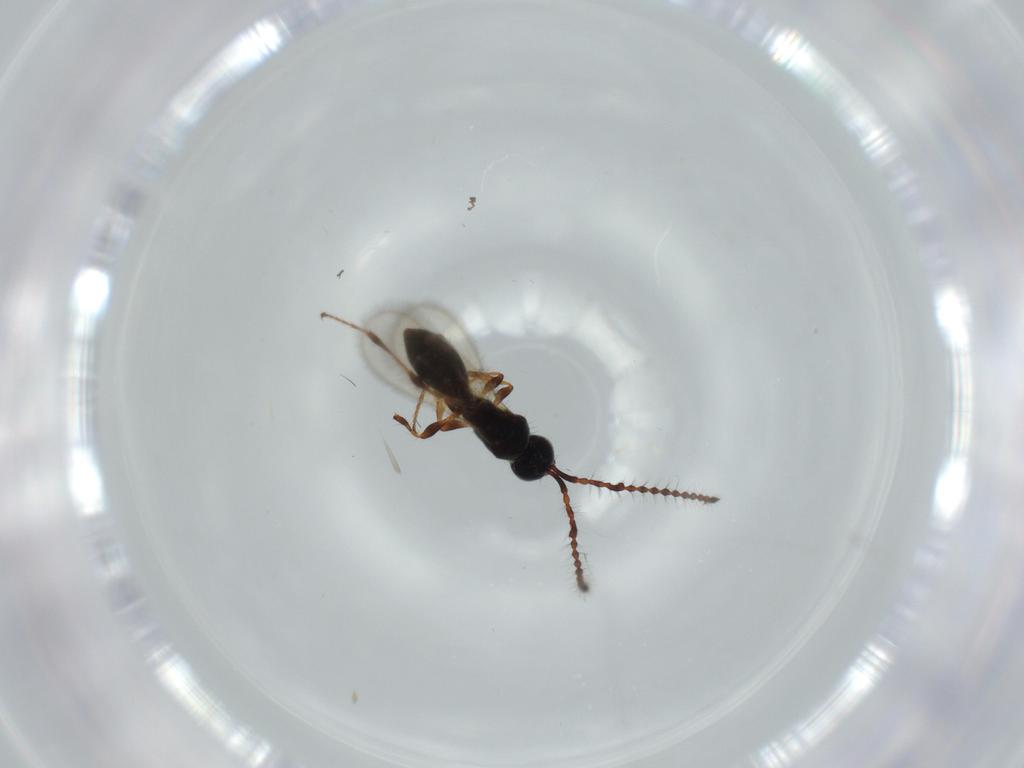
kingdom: Animalia
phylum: Arthropoda
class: Insecta
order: Hymenoptera
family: Diapriidae
